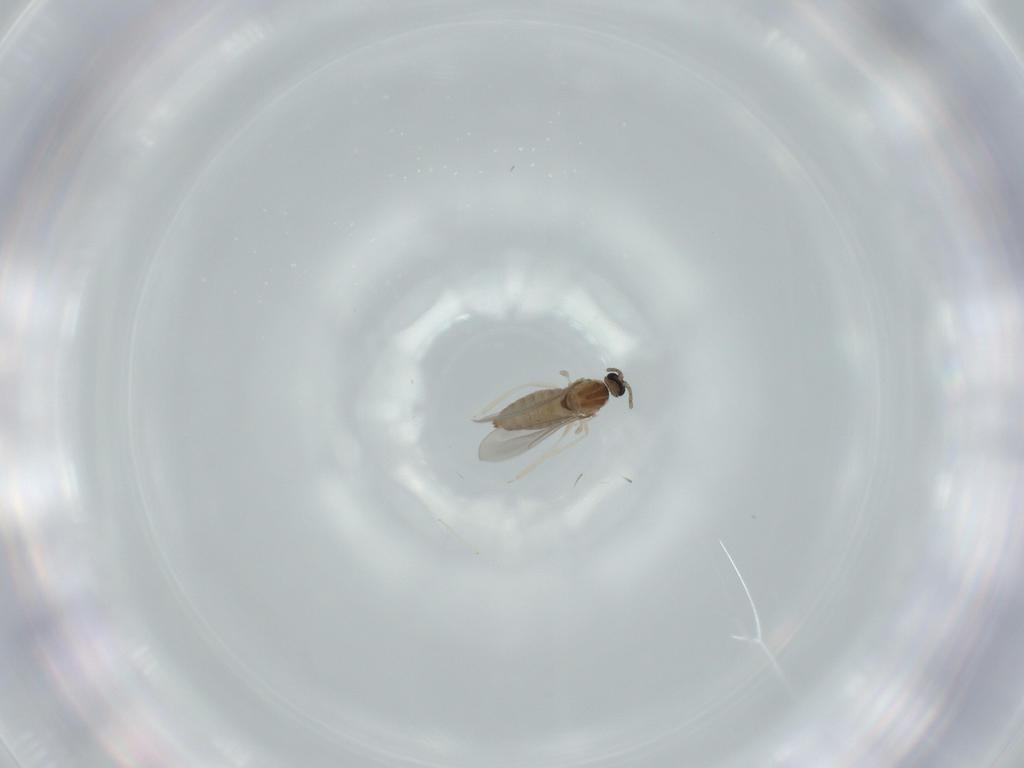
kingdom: Animalia
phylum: Arthropoda
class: Insecta
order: Diptera
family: Cecidomyiidae
